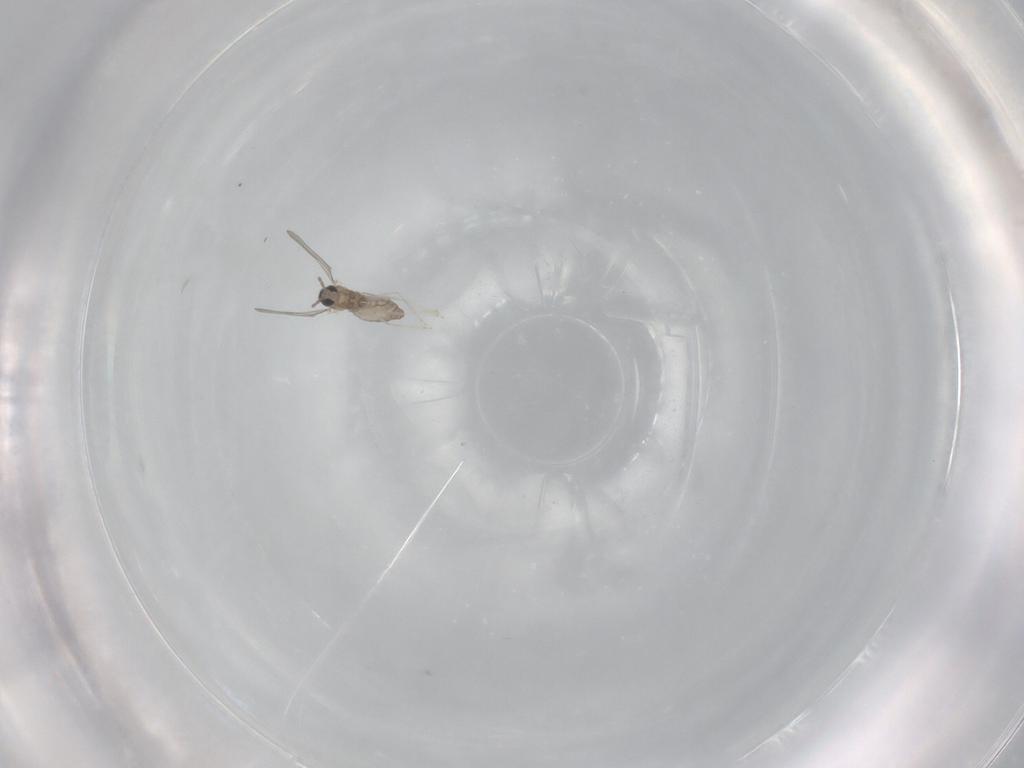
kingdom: Animalia
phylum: Arthropoda
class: Insecta
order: Diptera
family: Cecidomyiidae
